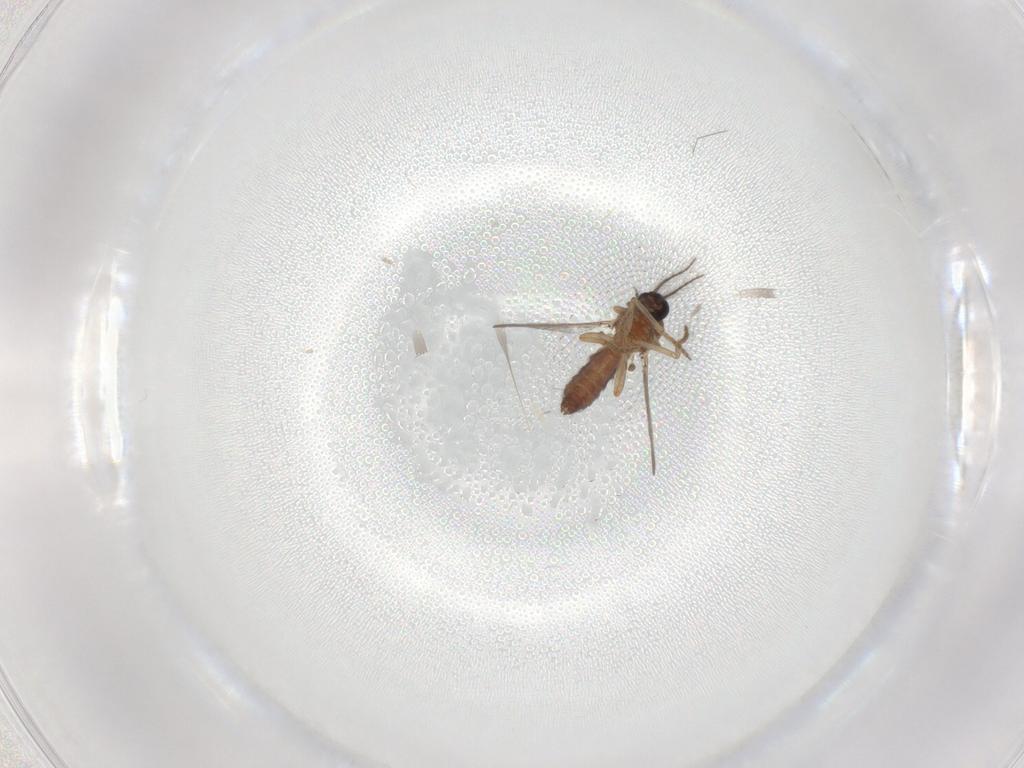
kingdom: Animalia
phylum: Arthropoda
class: Insecta
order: Diptera
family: Ceratopogonidae
